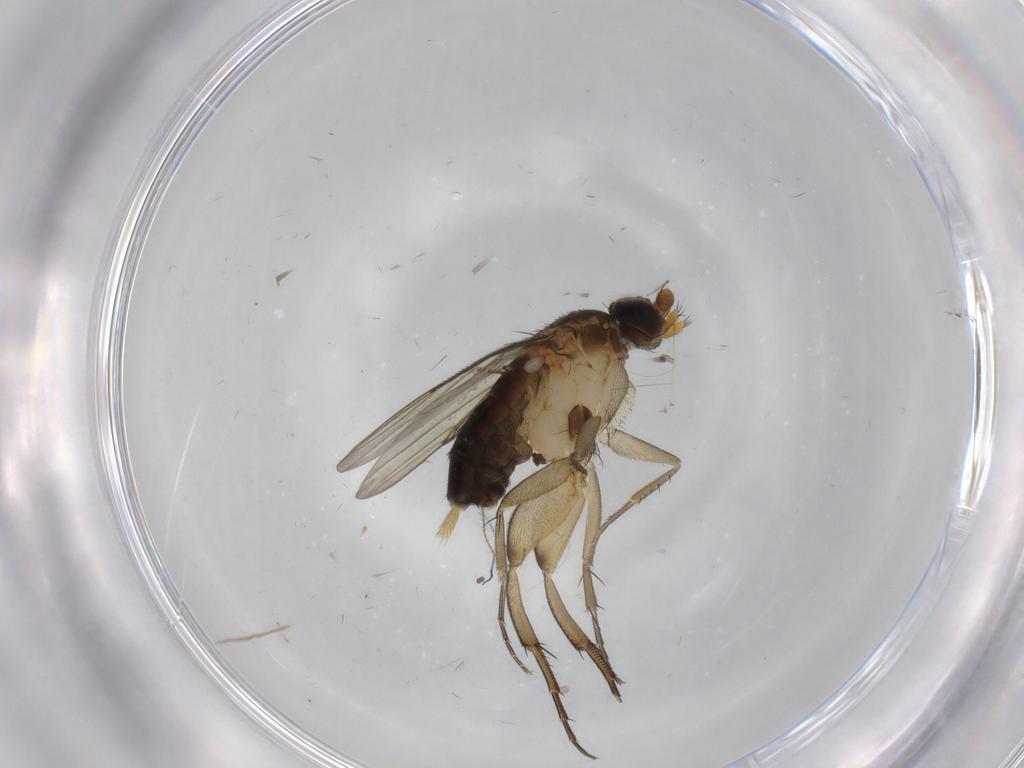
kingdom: Animalia
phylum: Arthropoda
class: Insecta
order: Diptera
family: Phoridae
